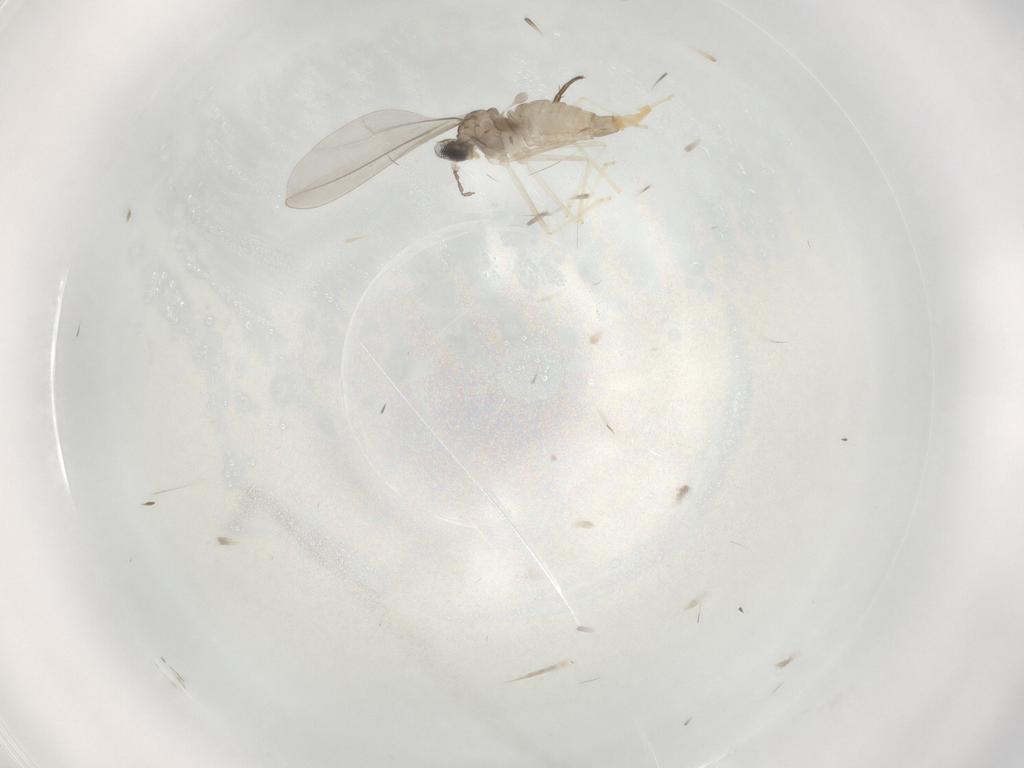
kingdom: Animalia
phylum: Arthropoda
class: Insecta
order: Diptera
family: Cecidomyiidae
